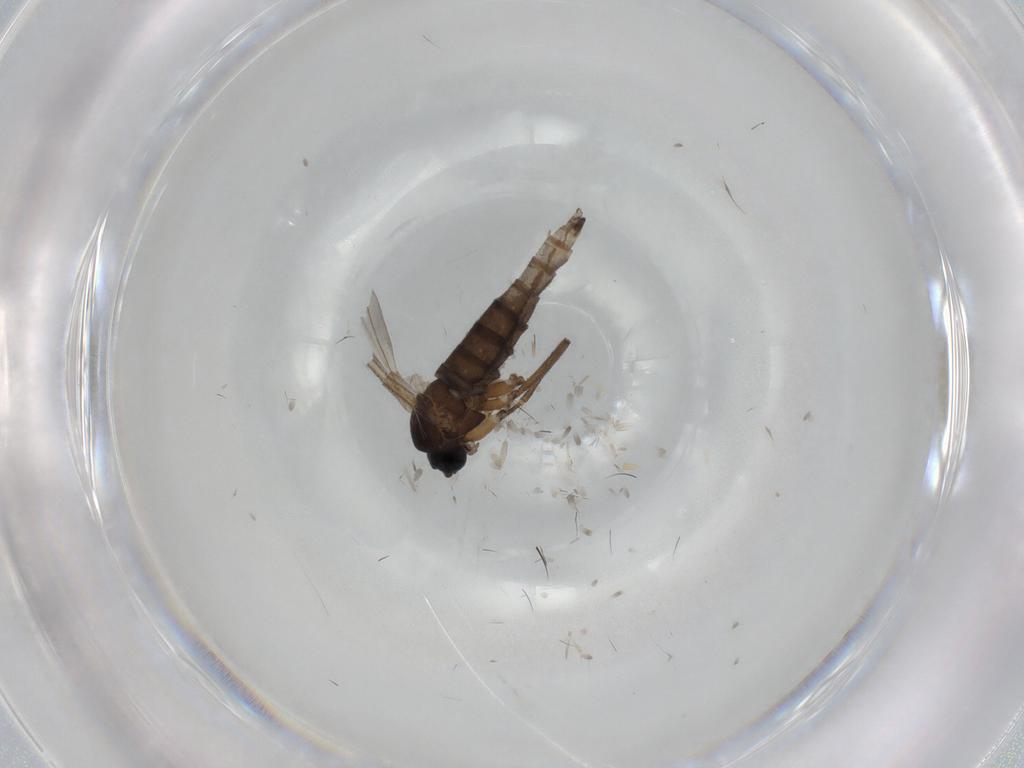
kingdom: Animalia
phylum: Arthropoda
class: Insecta
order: Diptera
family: Sciaridae
